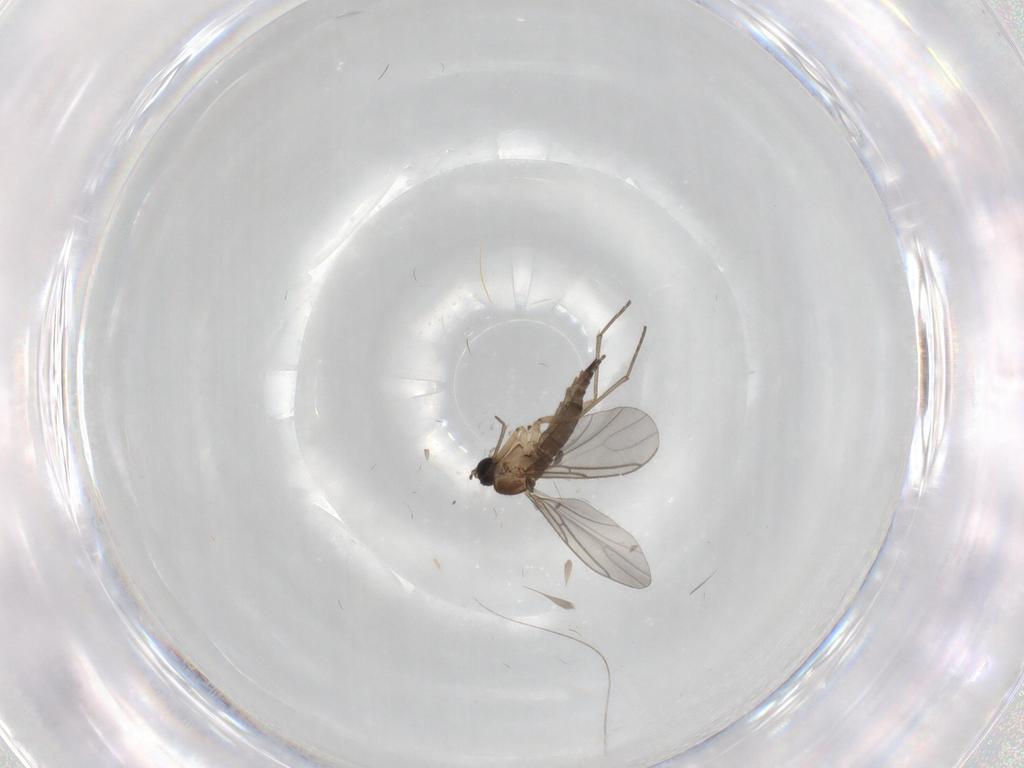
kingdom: Animalia
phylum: Arthropoda
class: Insecta
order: Diptera
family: Sciaridae
